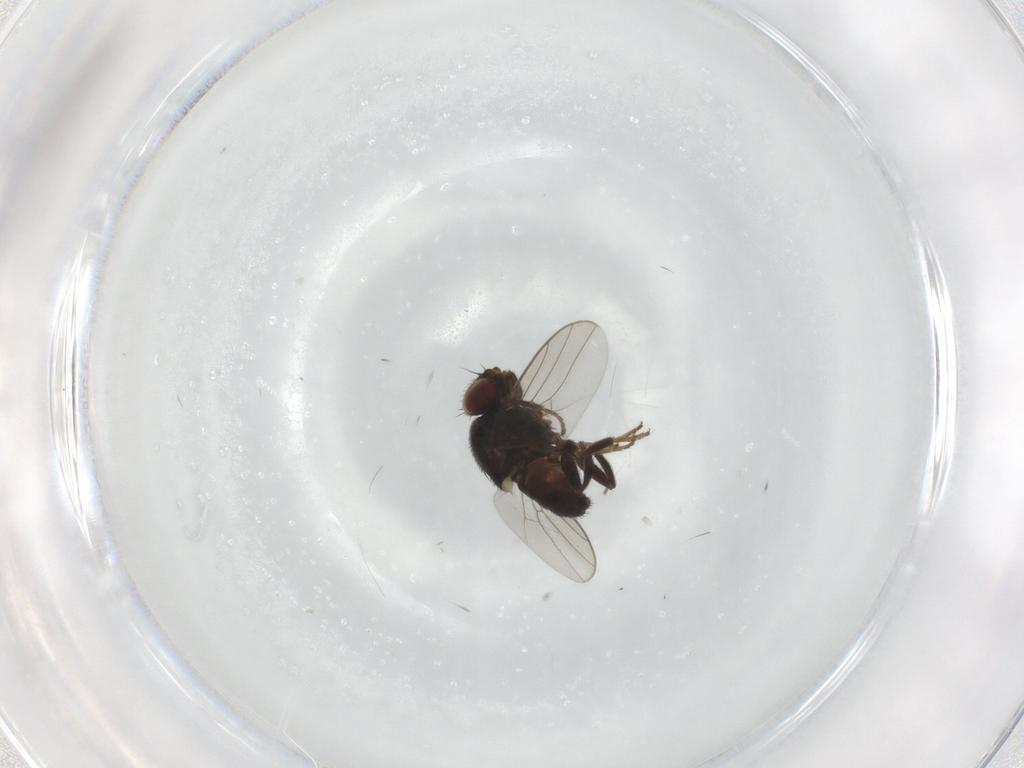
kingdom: Animalia
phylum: Arthropoda
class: Insecta
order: Diptera
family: Chloropidae
